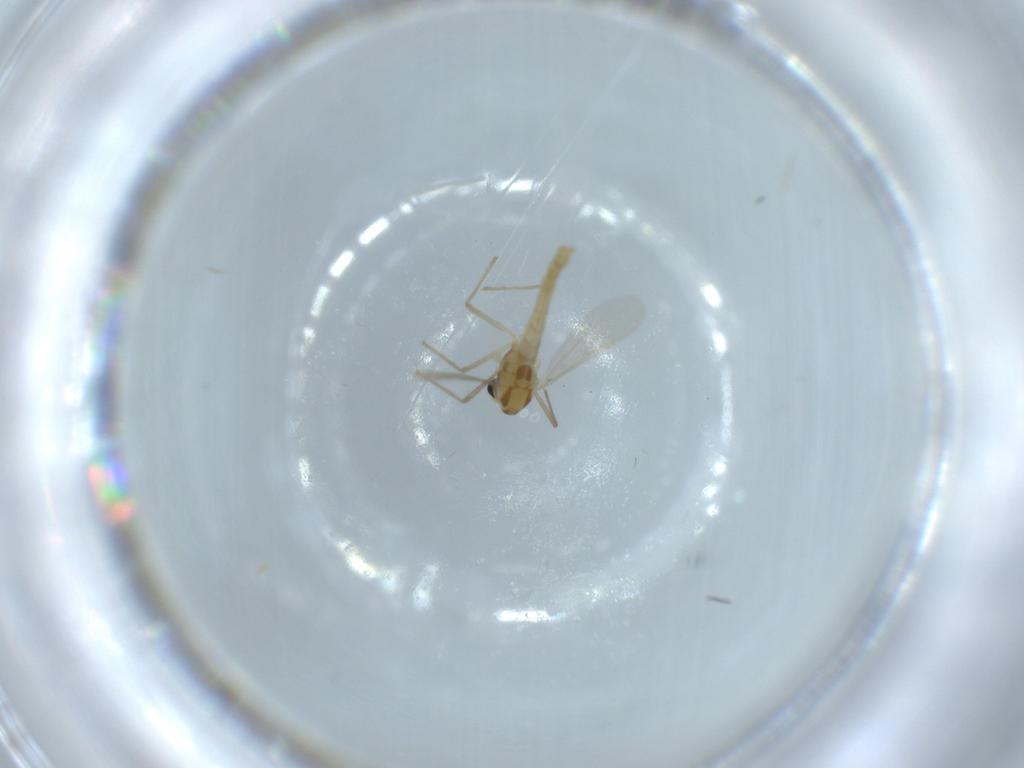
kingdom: Animalia
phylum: Arthropoda
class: Insecta
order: Diptera
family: Chironomidae
